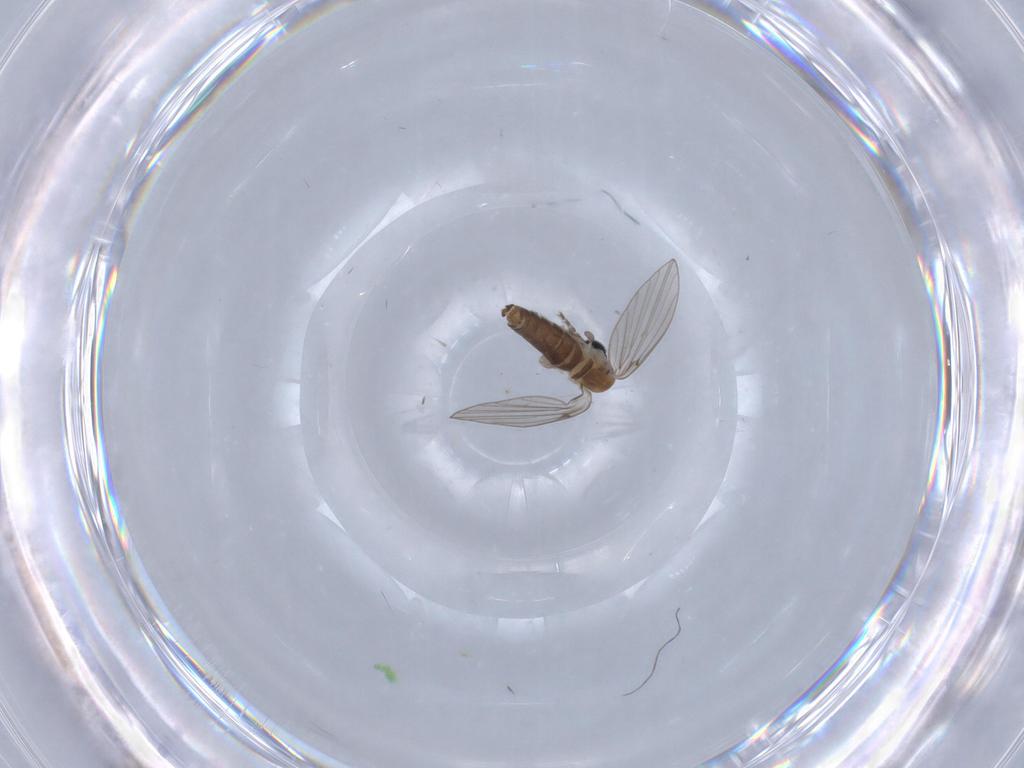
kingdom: Animalia
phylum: Arthropoda
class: Insecta
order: Diptera
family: Psychodidae
